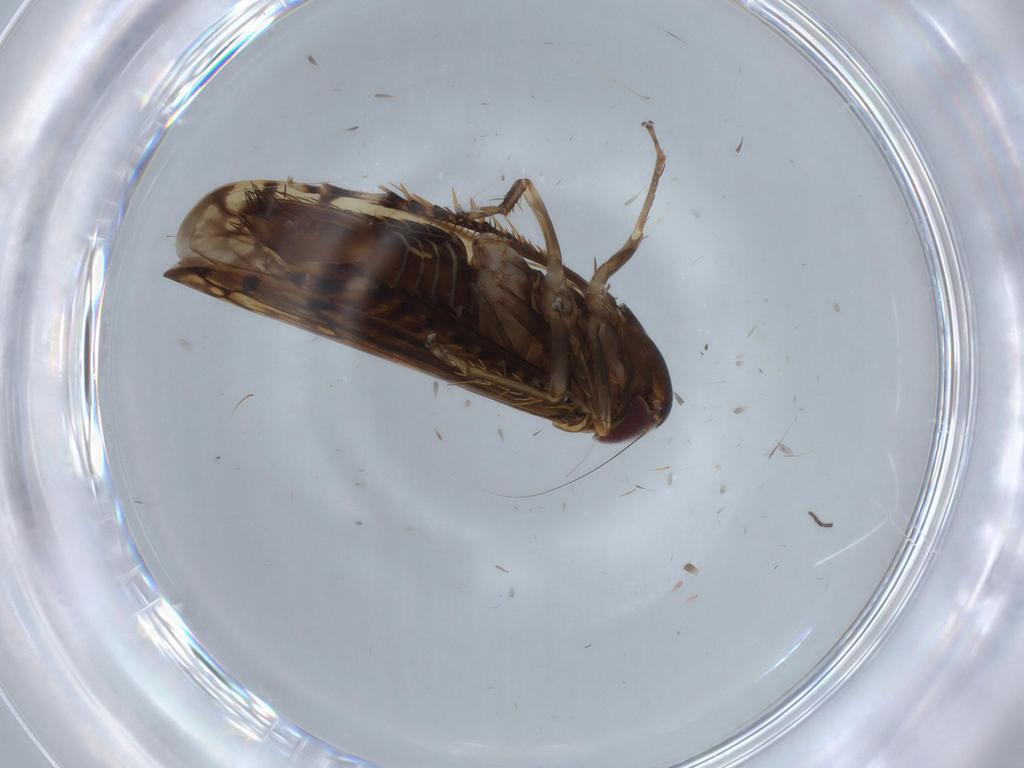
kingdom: Animalia
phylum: Arthropoda
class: Insecta
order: Hemiptera
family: Cicadellidae
